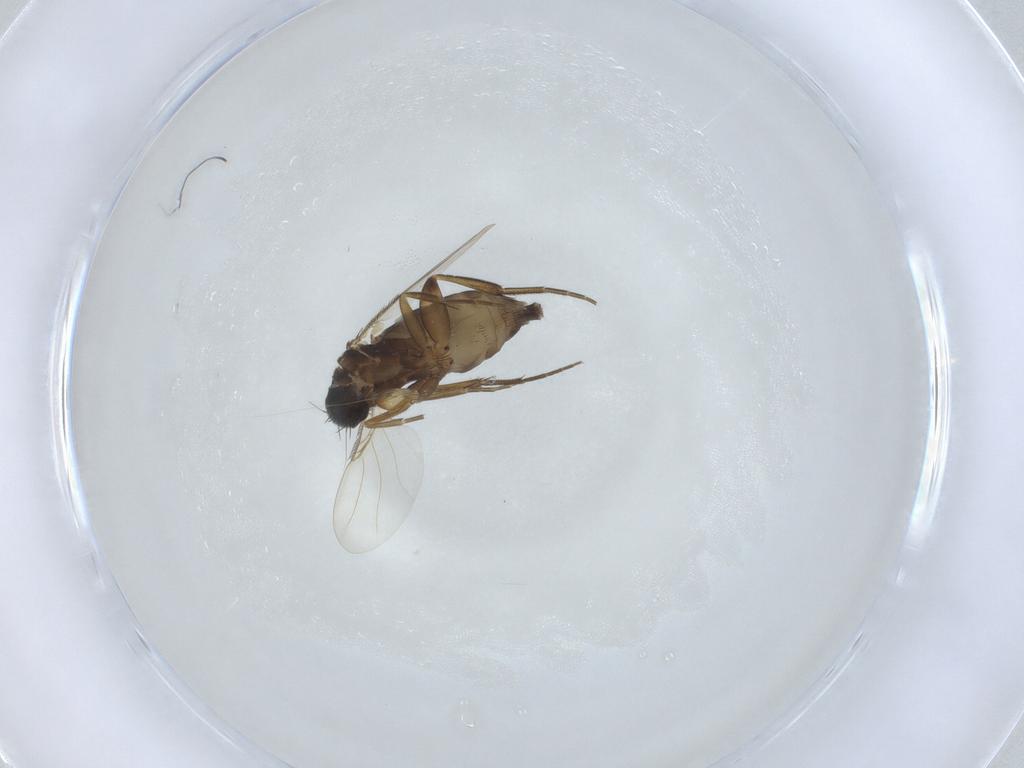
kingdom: Animalia
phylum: Arthropoda
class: Insecta
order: Diptera
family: Phoridae
